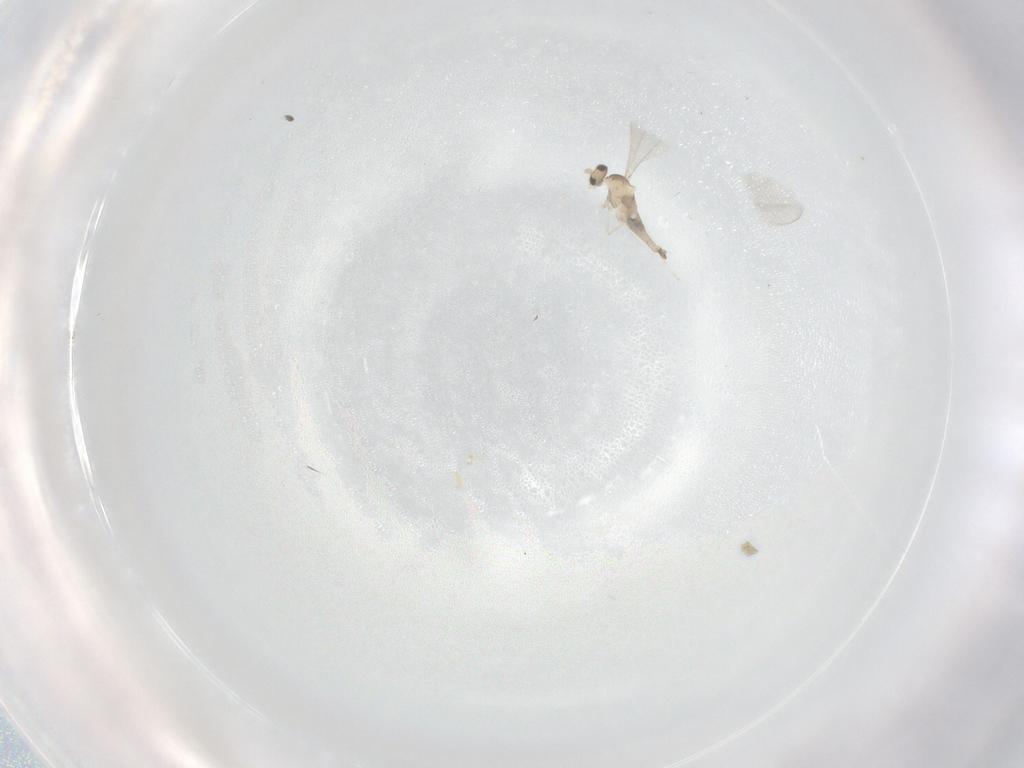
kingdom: Animalia
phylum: Arthropoda
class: Insecta
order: Diptera
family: Cecidomyiidae
